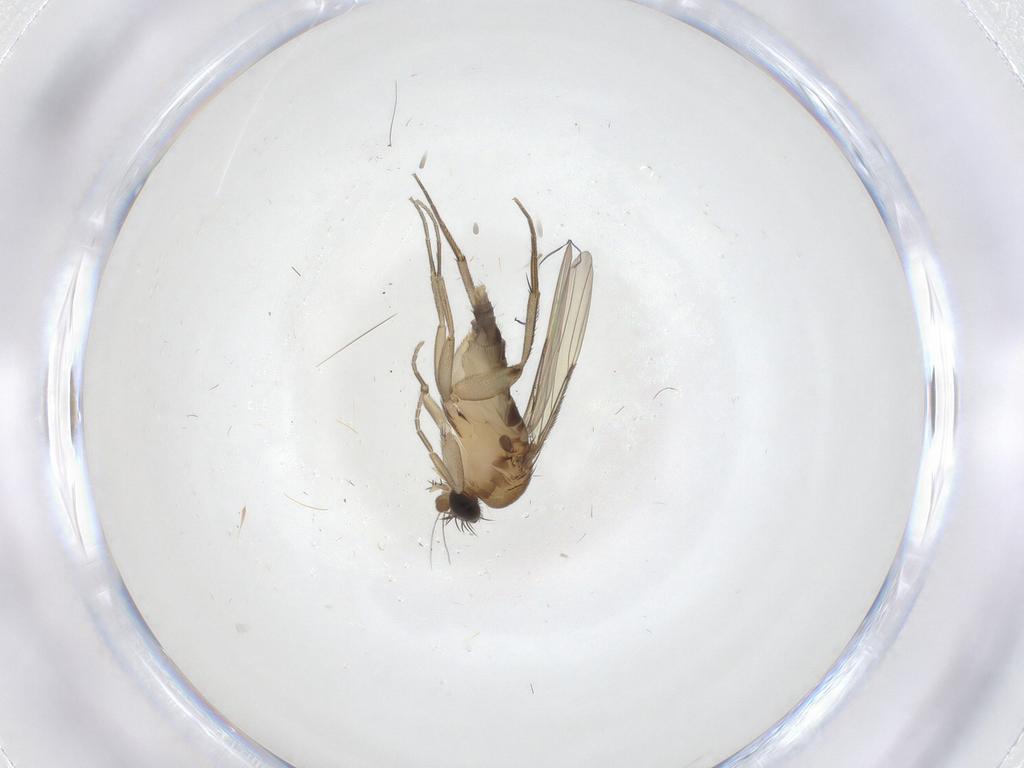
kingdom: Animalia
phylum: Arthropoda
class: Insecta
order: Diptera
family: Phoridae
